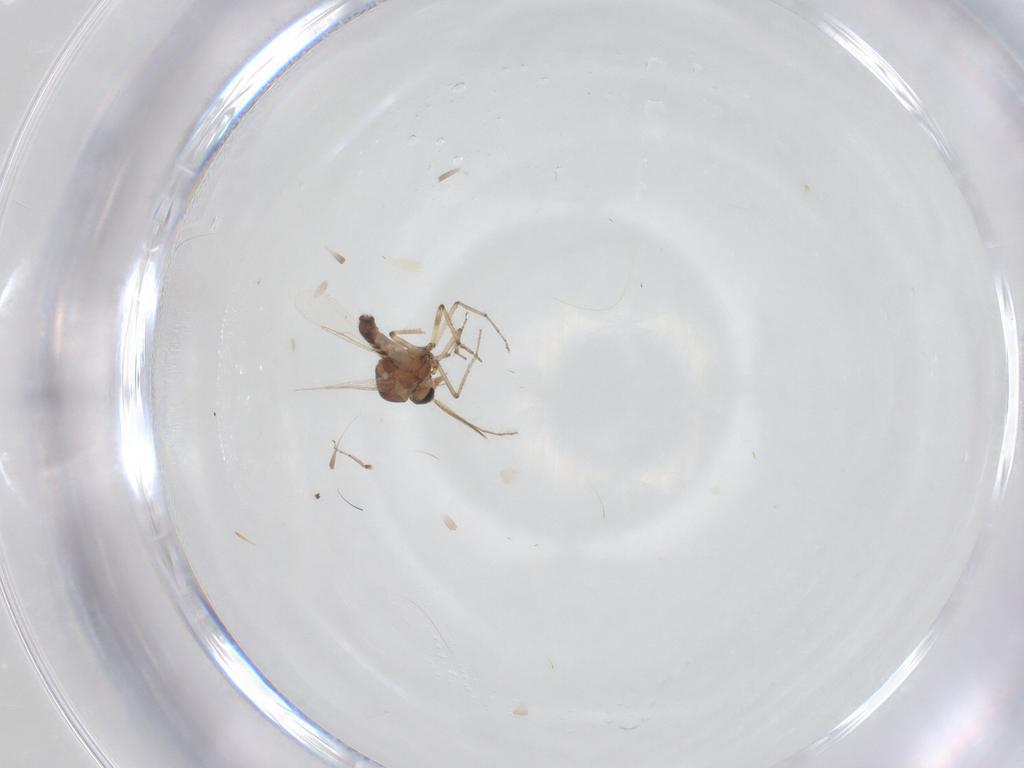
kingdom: Animalia
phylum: Arthropoda
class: Insecta
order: Diptera
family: Ceratopogonidae
